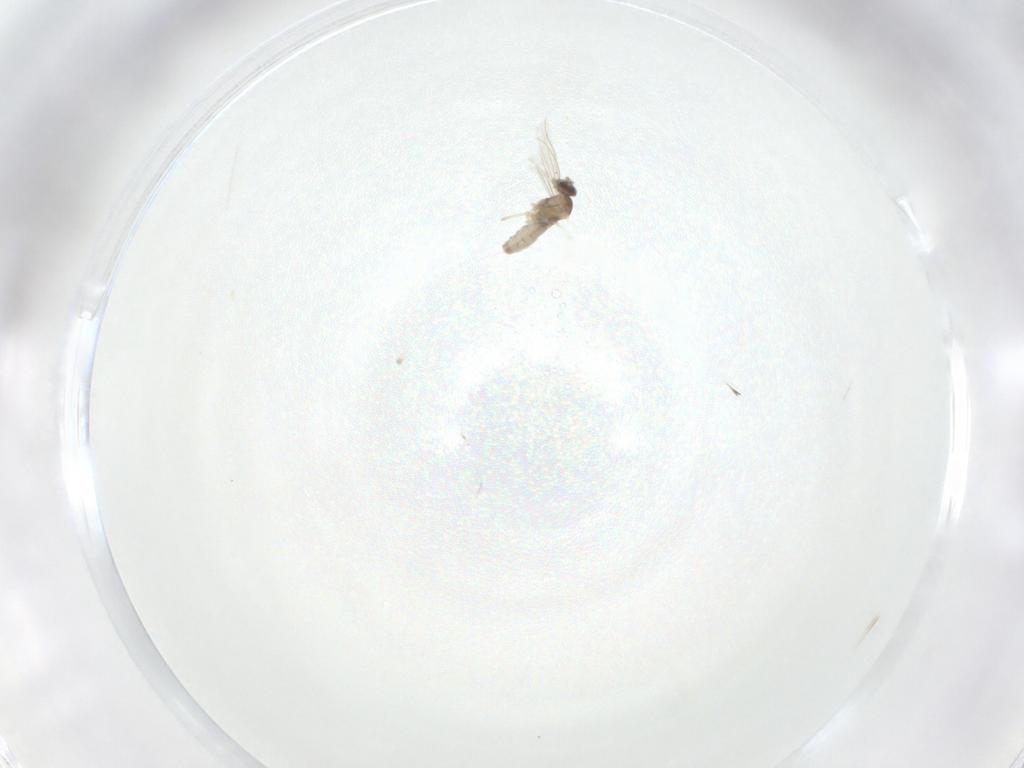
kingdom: Animalia
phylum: Arthropoda
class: Insecta
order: Diptera
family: Cecidomyiidae
